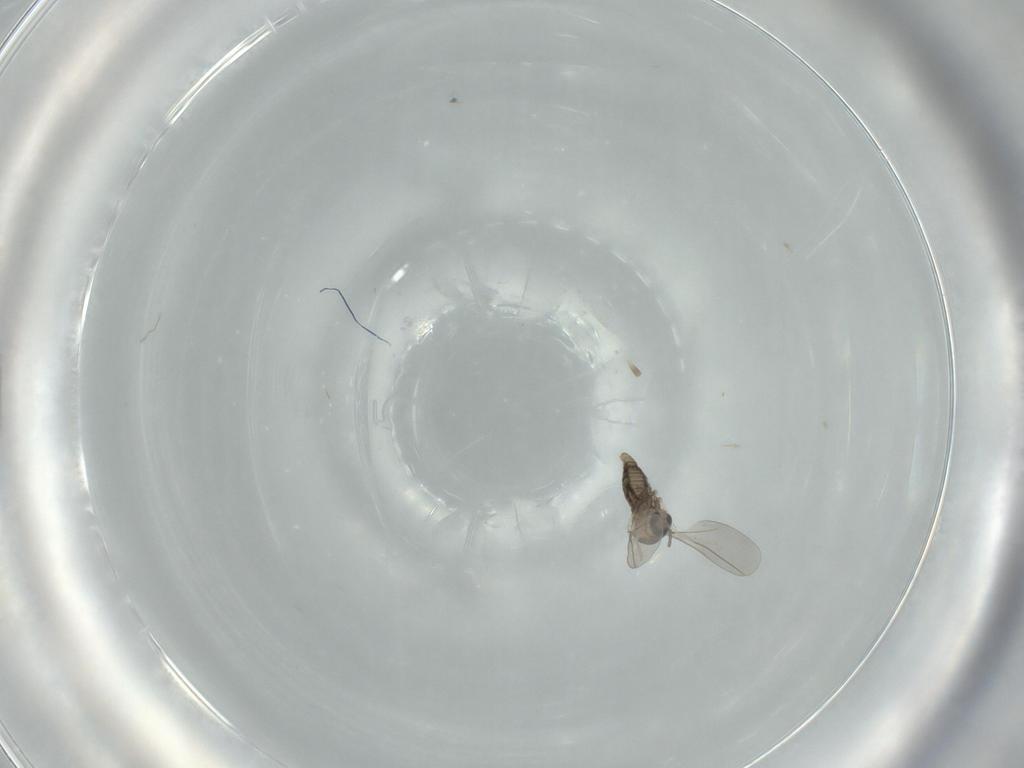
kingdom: Animalia
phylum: Arthropoda
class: Insecta
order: Diptera
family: Cecidomyiidae
